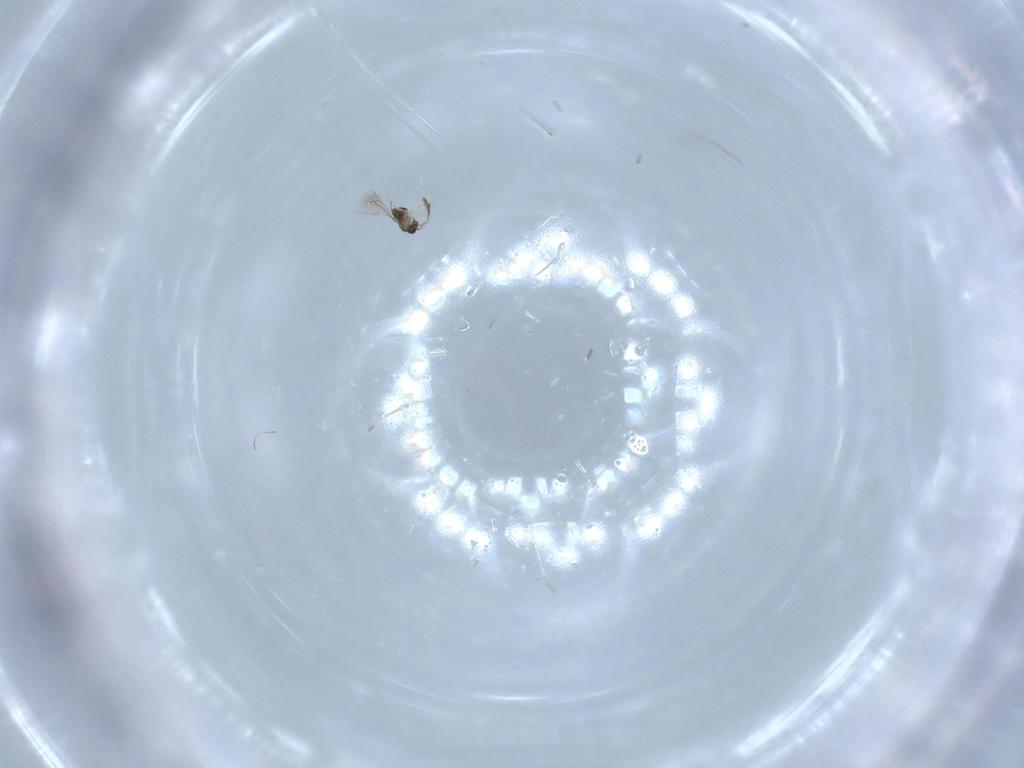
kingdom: Animalia
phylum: Arthropoda
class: Insecta
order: Hymenoptera
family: Mymaridae
